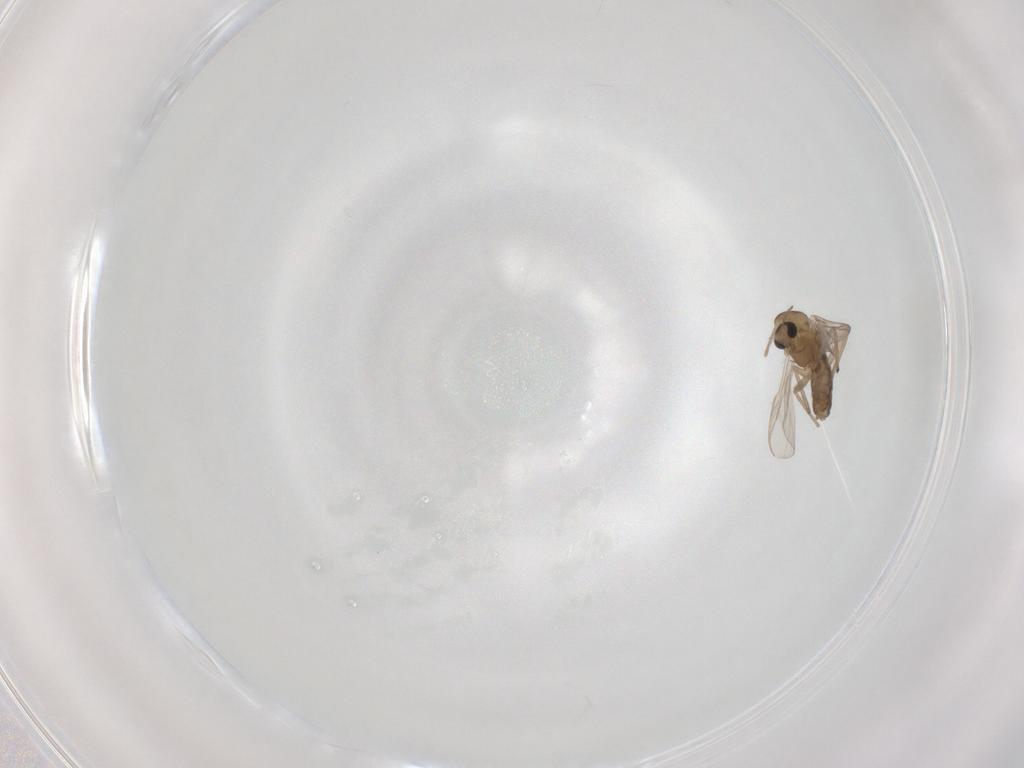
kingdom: Animalia
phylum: Arthropoda
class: Insecta
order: Diptera
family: Chironomidae
